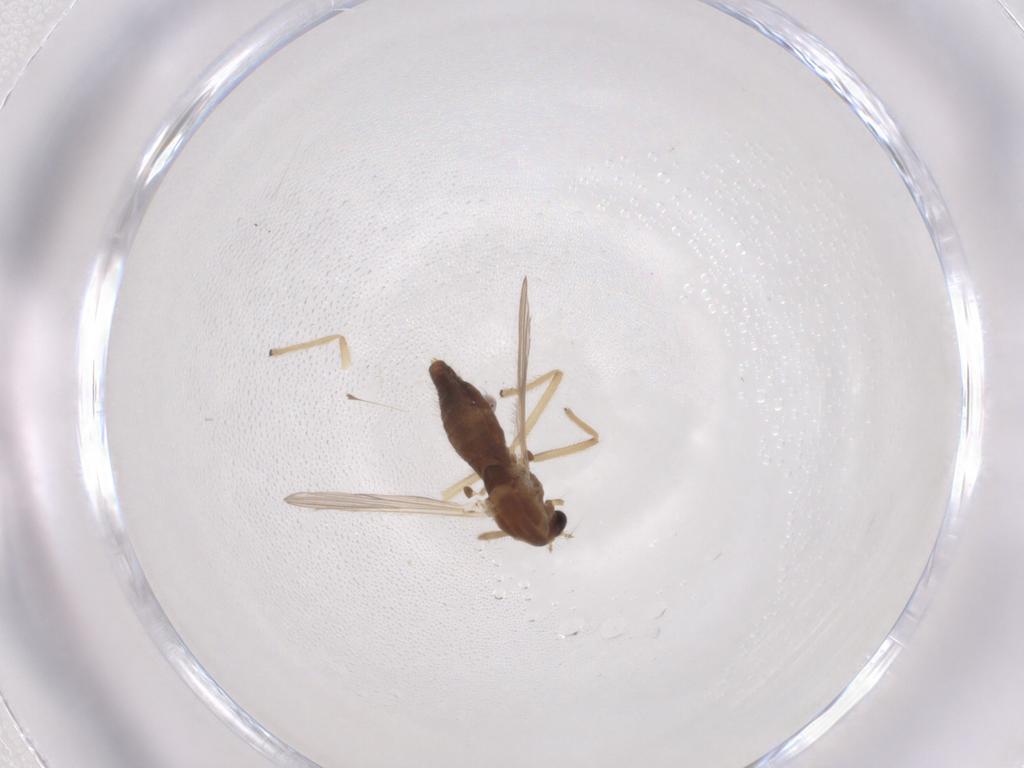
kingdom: Animalia
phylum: Arthropoda
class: Insecta
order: Diptera
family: Chironomidae
